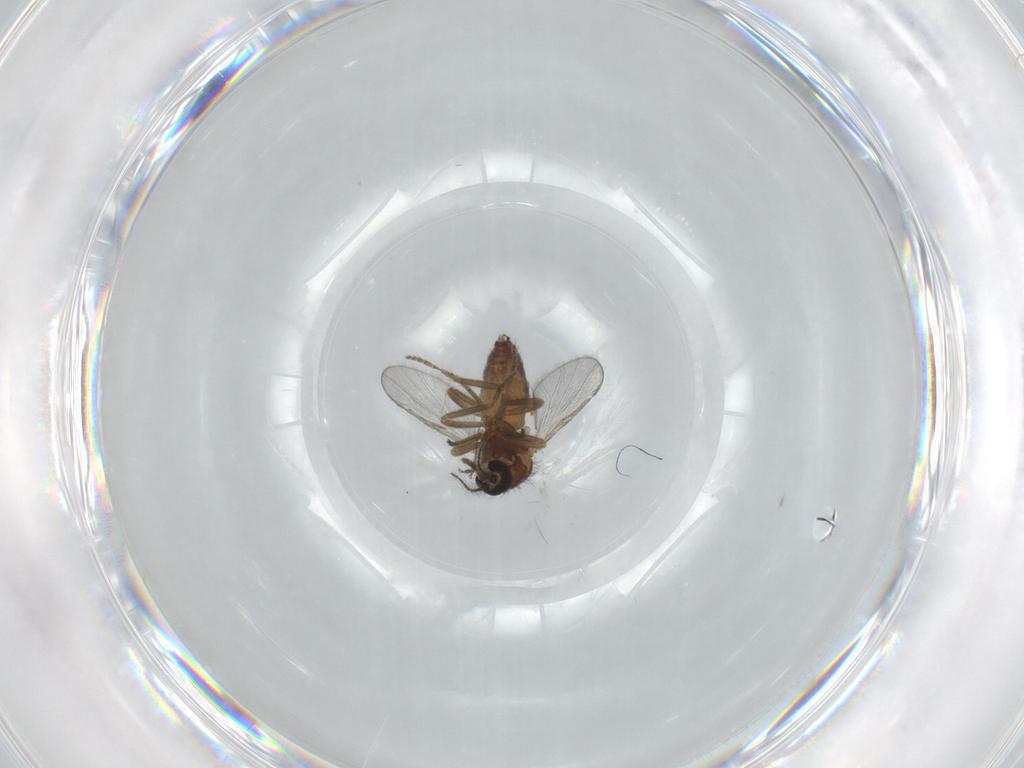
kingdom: Animalia
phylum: Arthropoda
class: Insecta
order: Diptera
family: Ceratopogonidae
